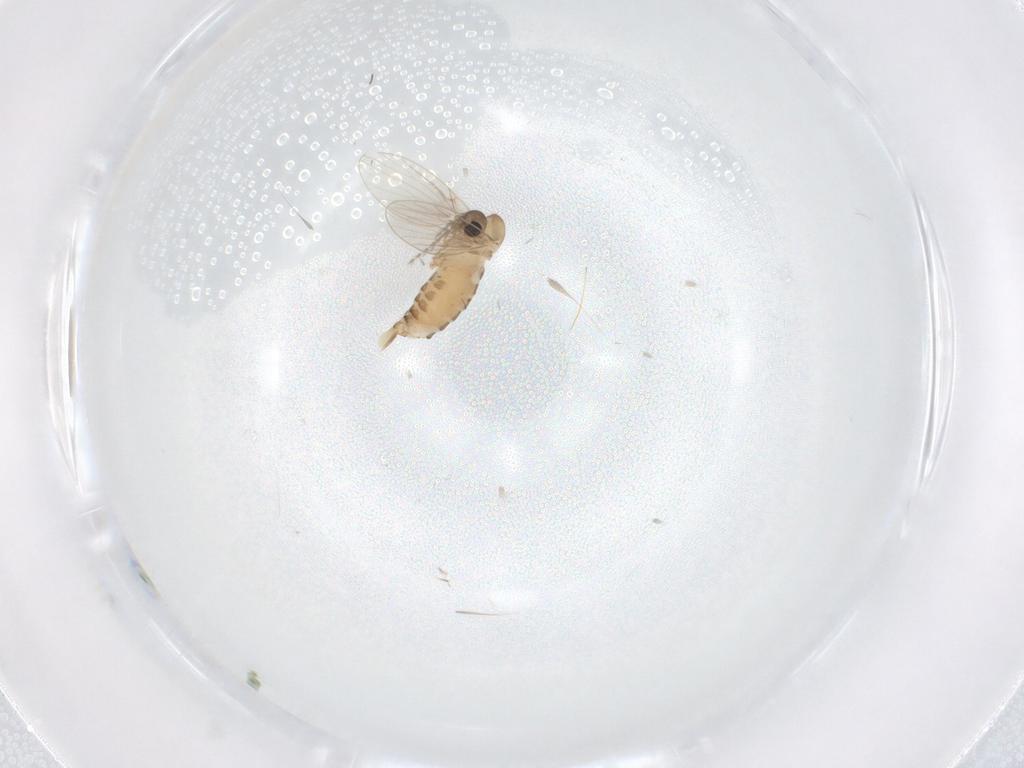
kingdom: Animalia
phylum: Arthropoda
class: Insecta
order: Diptera
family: Psychodidae
